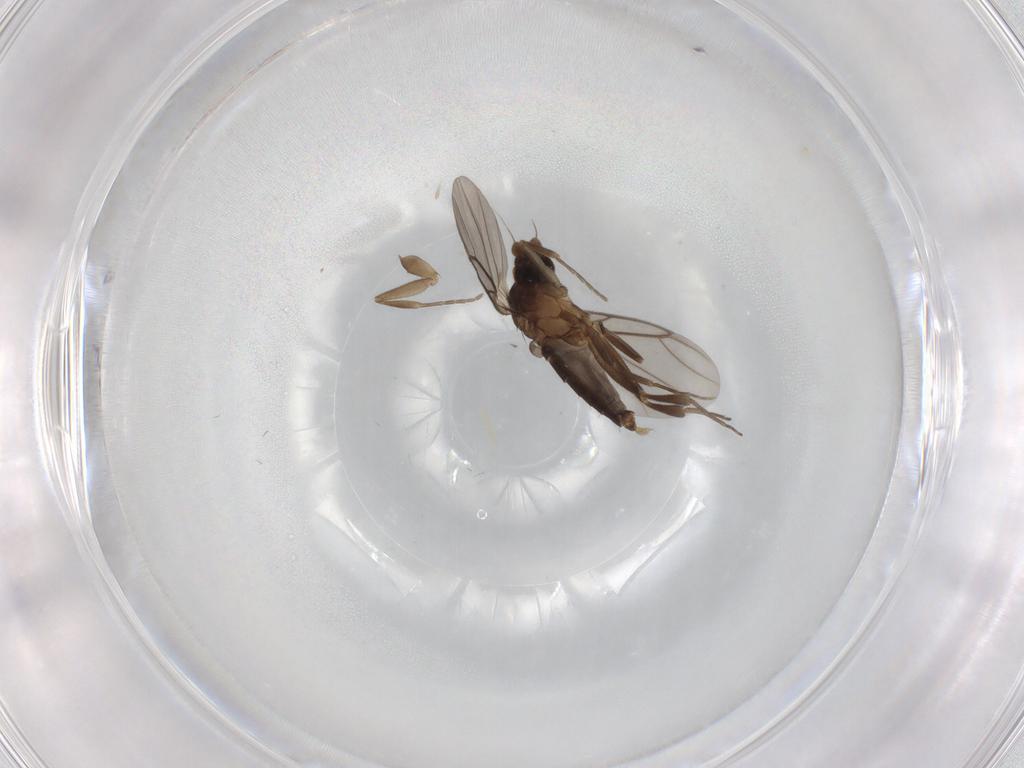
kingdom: Animalia
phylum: Arthropoda
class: Insecta
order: Diptera
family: Phoridae
